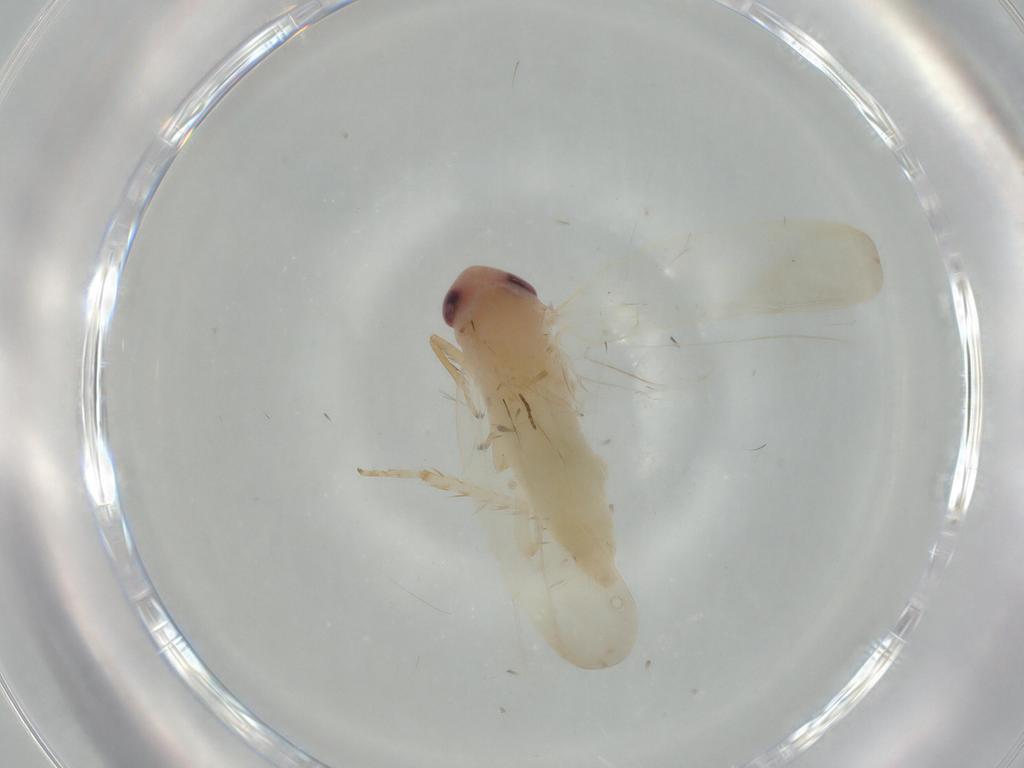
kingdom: Animalia
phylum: Arthropoda
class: Insecta
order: Hemiptera
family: Cicadellidae
